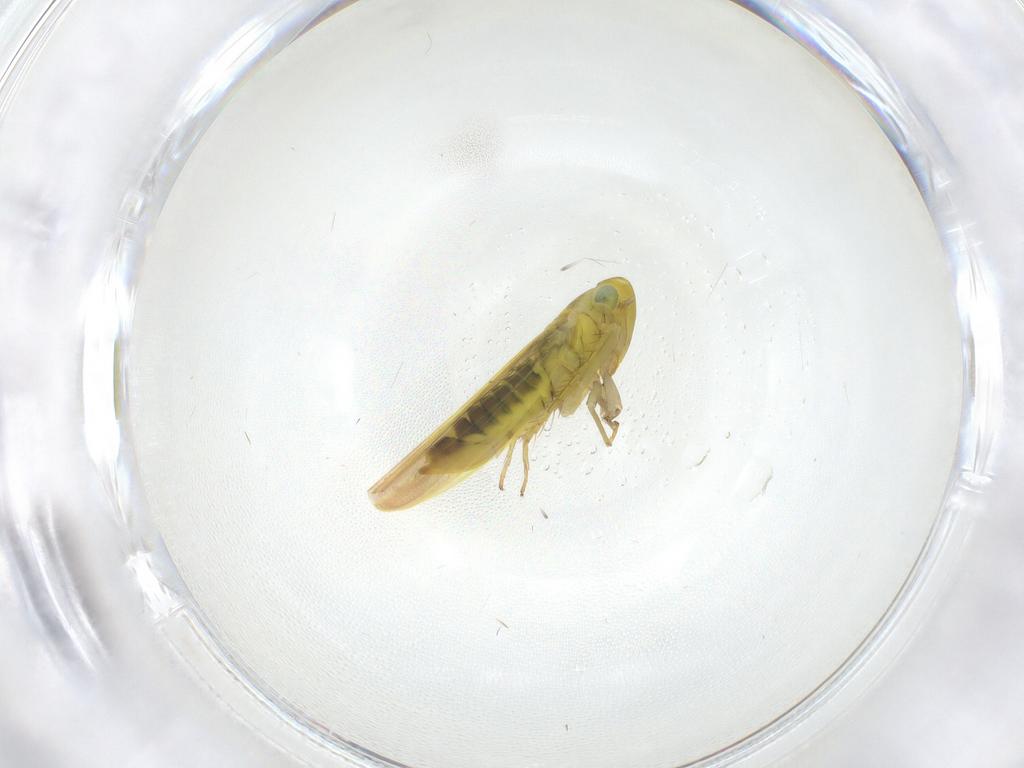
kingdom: Animalia
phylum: Arthropoda
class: Insecta
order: Hemiptera
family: Cicadellidae
